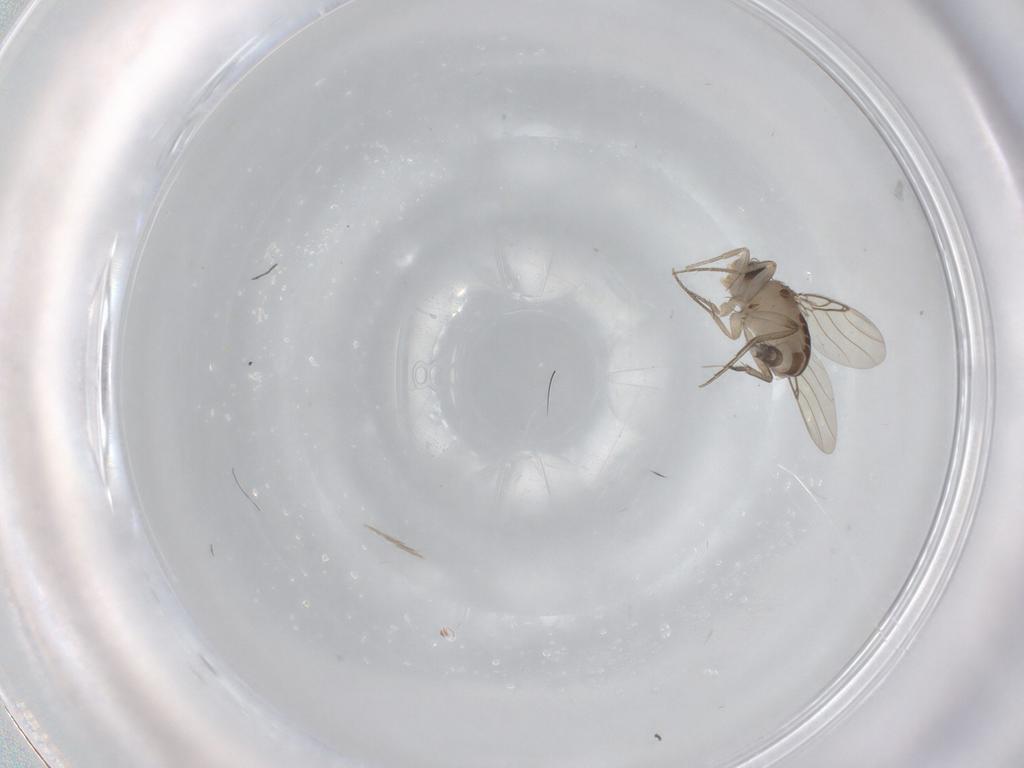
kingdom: Animalia
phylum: Arthropoda
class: Insecta
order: Diptera
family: Phoridae
